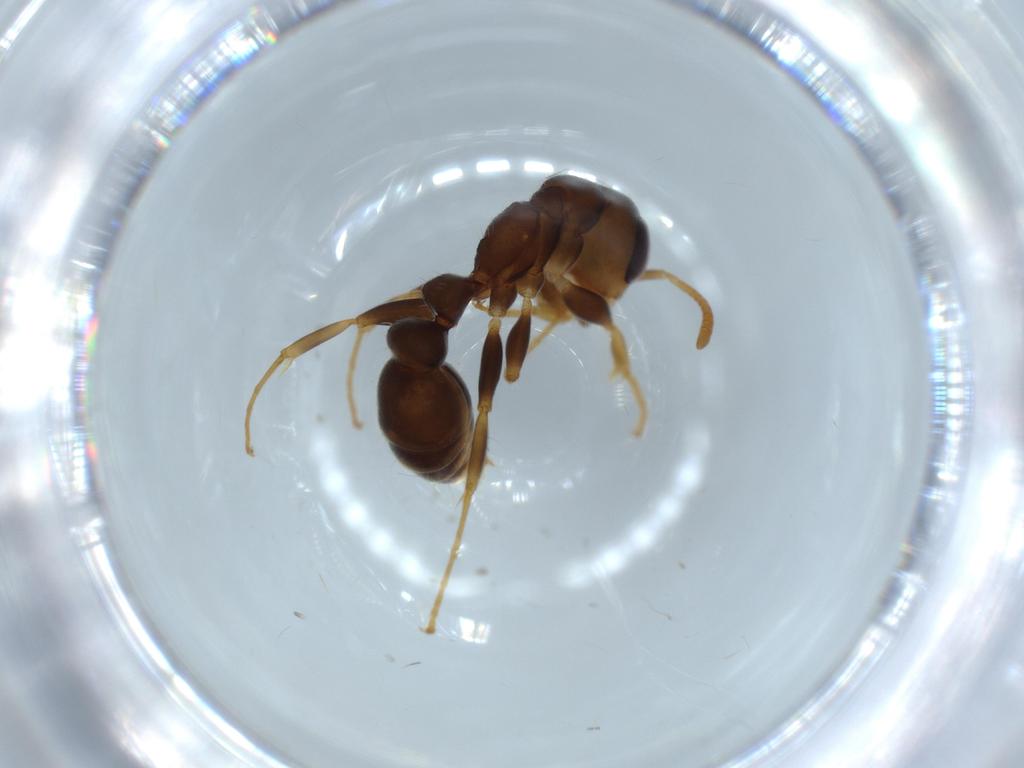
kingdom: Animalia
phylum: Arthropoda
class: Insecta
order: Hymenoptera
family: Formicidae
